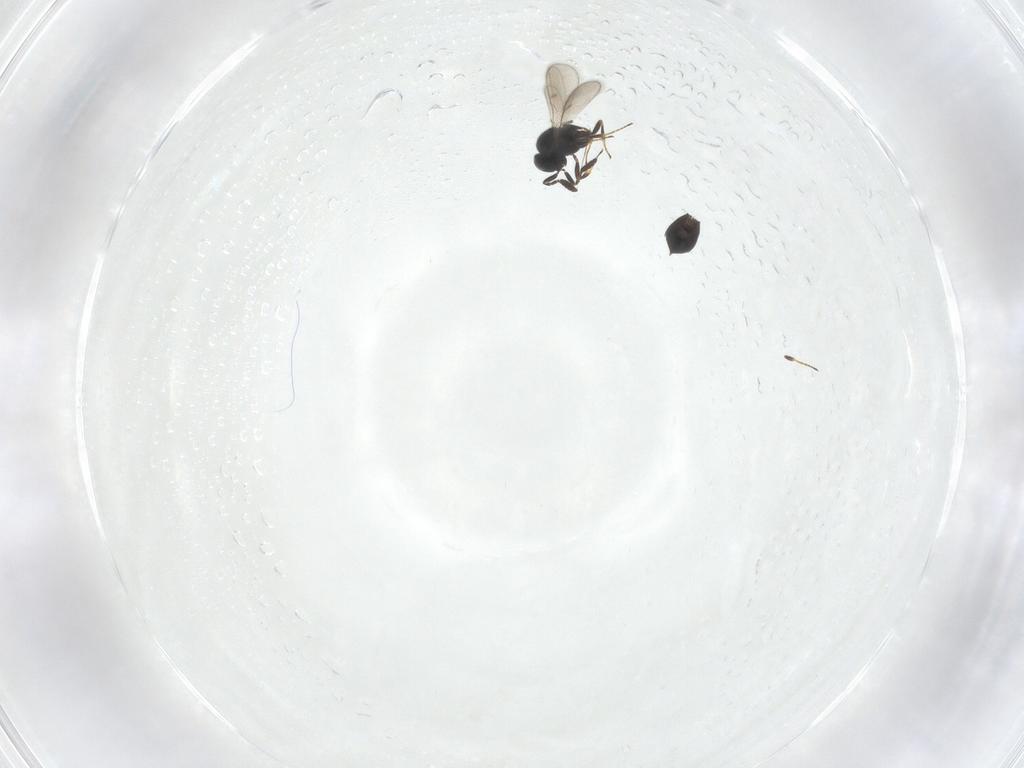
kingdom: Animalia
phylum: Arthropoda
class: Insecta
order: Hymenoptera
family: Scelionidae
